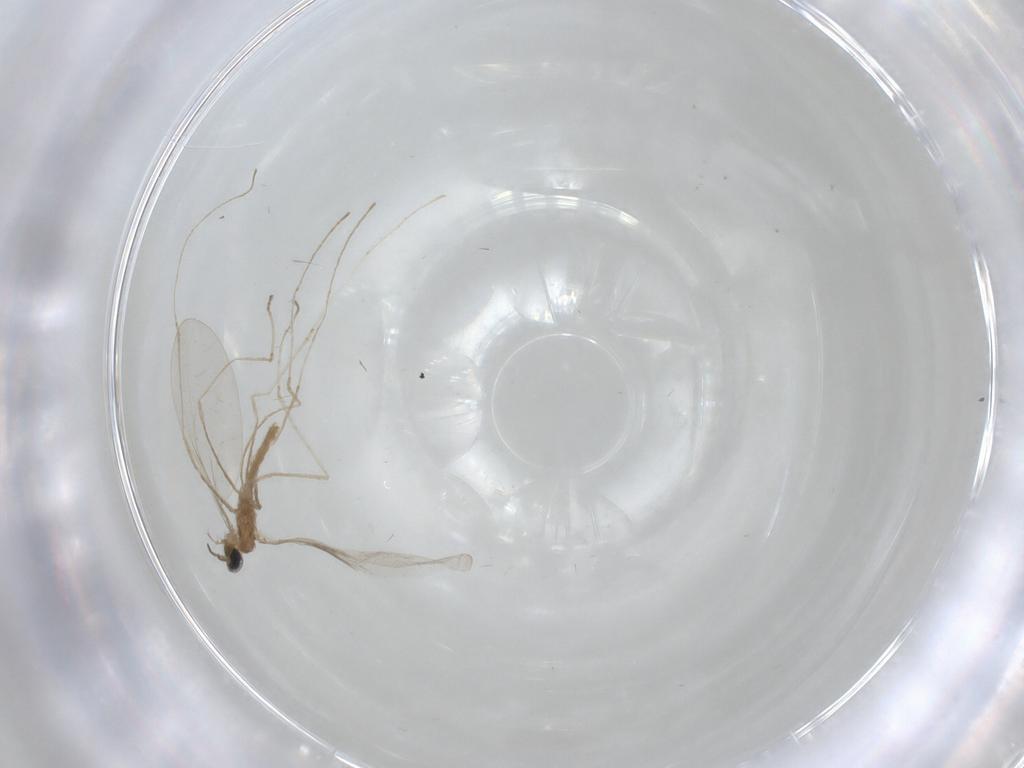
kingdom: Animalia
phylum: Arthropoda
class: Insecta
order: Diptera
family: Cecidomyiidae
